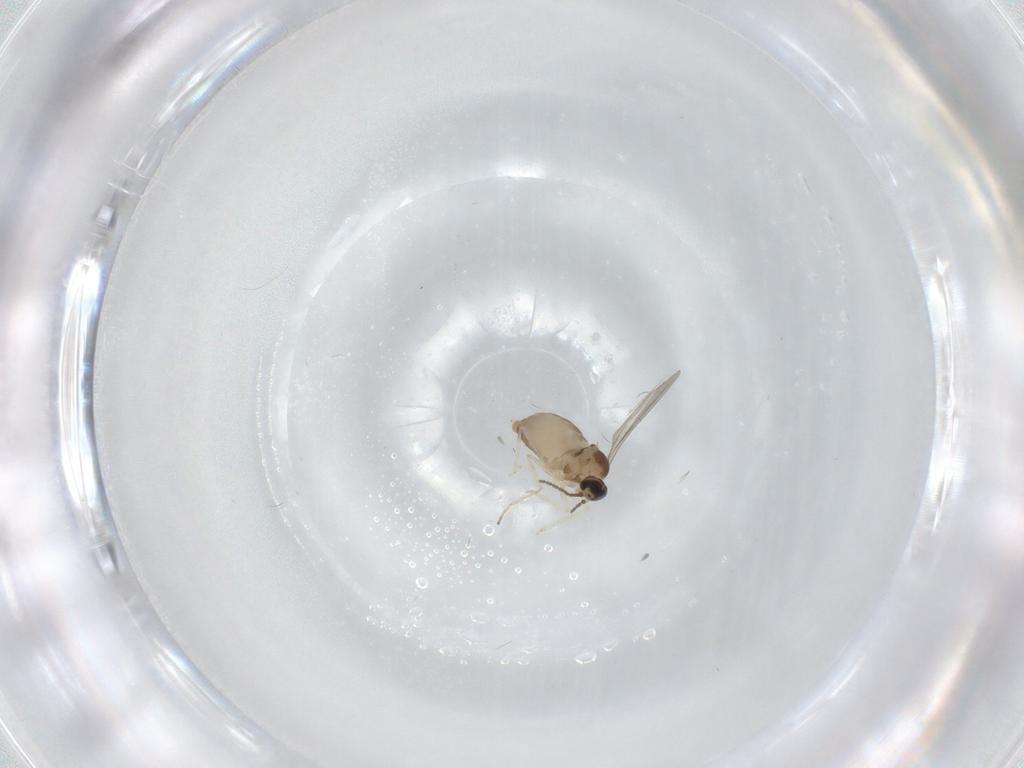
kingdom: Animalia
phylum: Arthropoda
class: Insecta
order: Diptera
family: Cecidomyiidae
